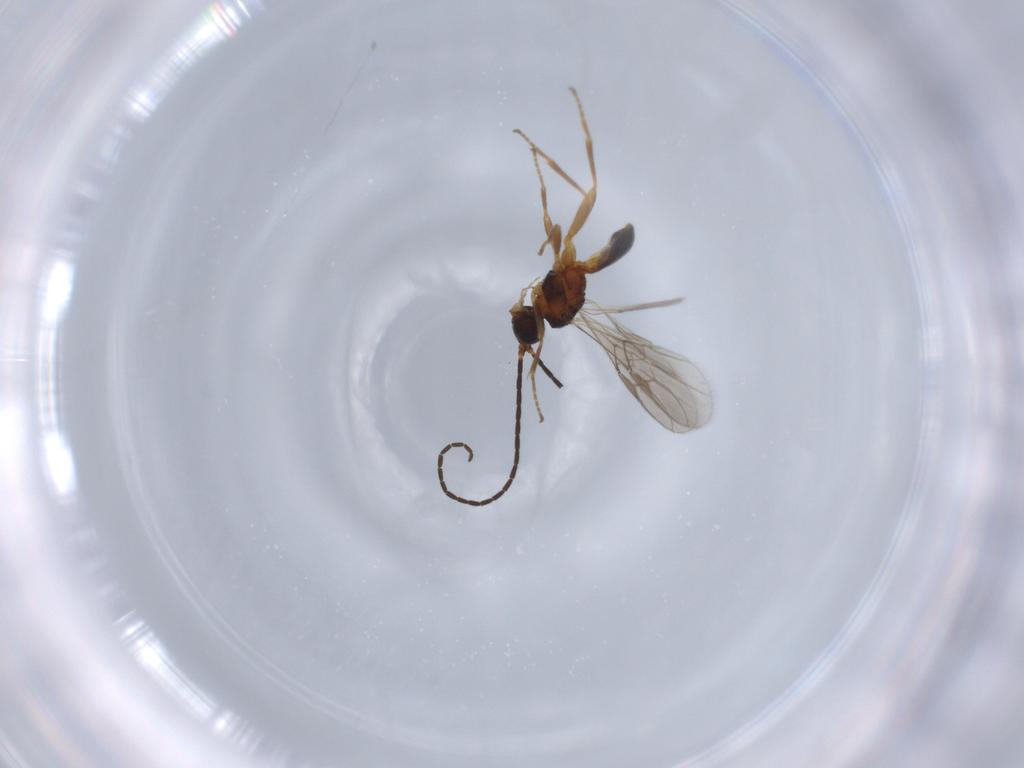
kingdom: Animalia
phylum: Arthropoda
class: Insecta
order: Hymenoptera
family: Braconidae
